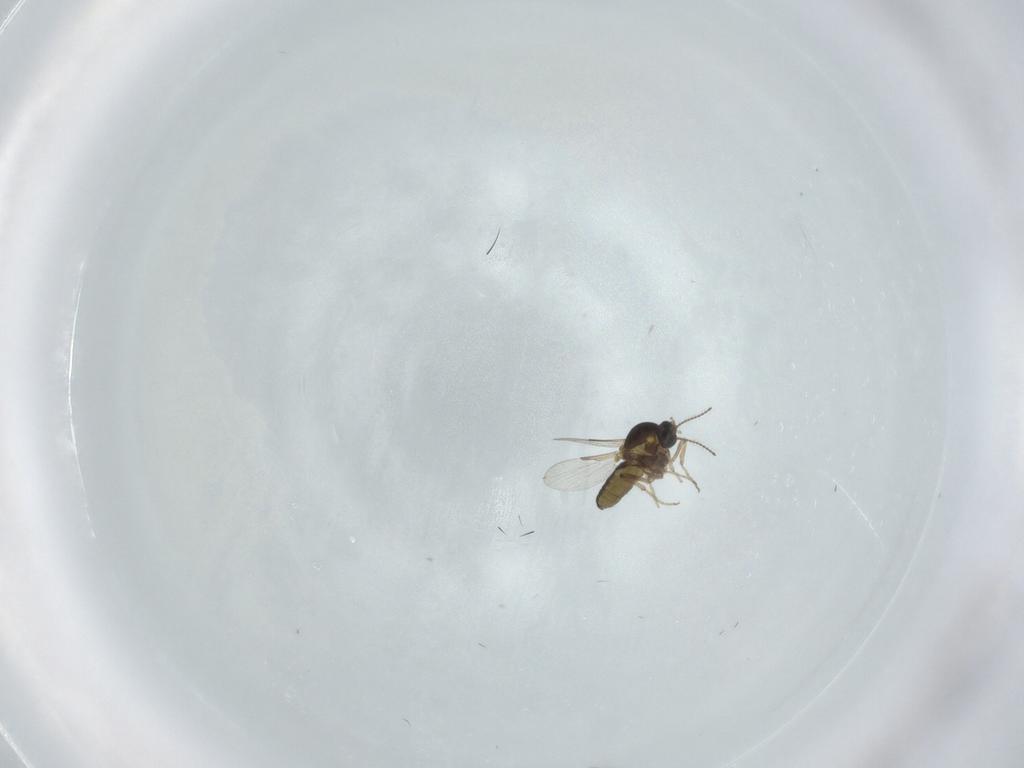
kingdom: Animalia
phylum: Arthropoda
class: Insecta
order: Diptera
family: Ceratopogonidae
